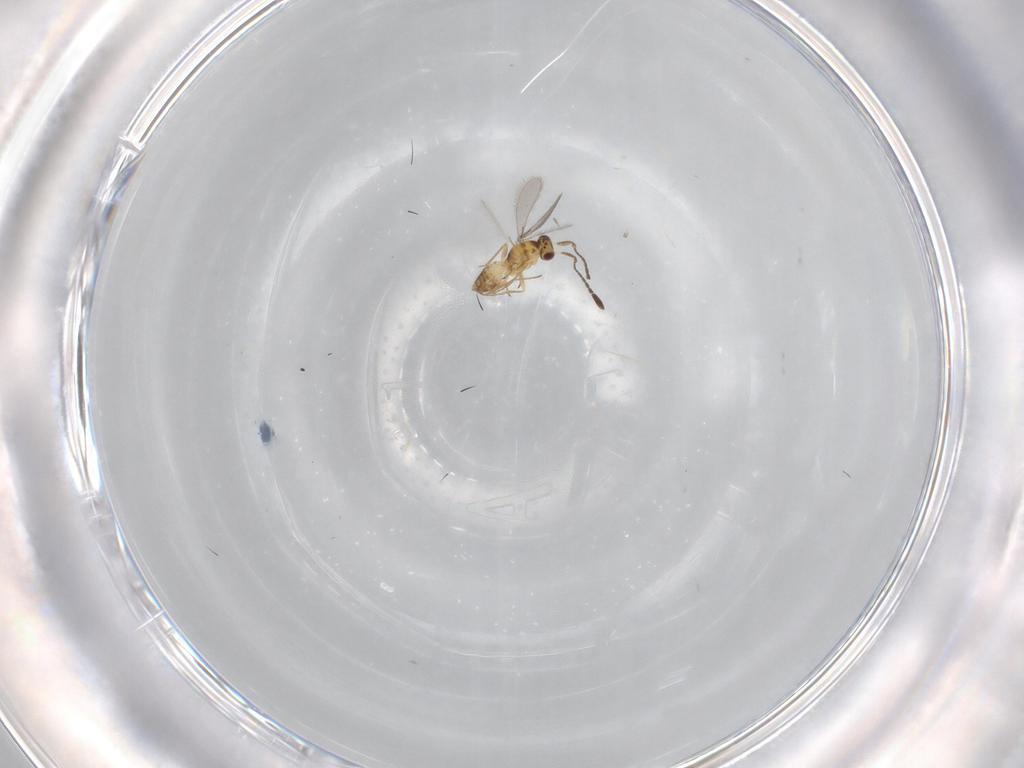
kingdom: Animalia
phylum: Arthropoda
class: Insecta
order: Hymenoptera
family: Mymaridae
